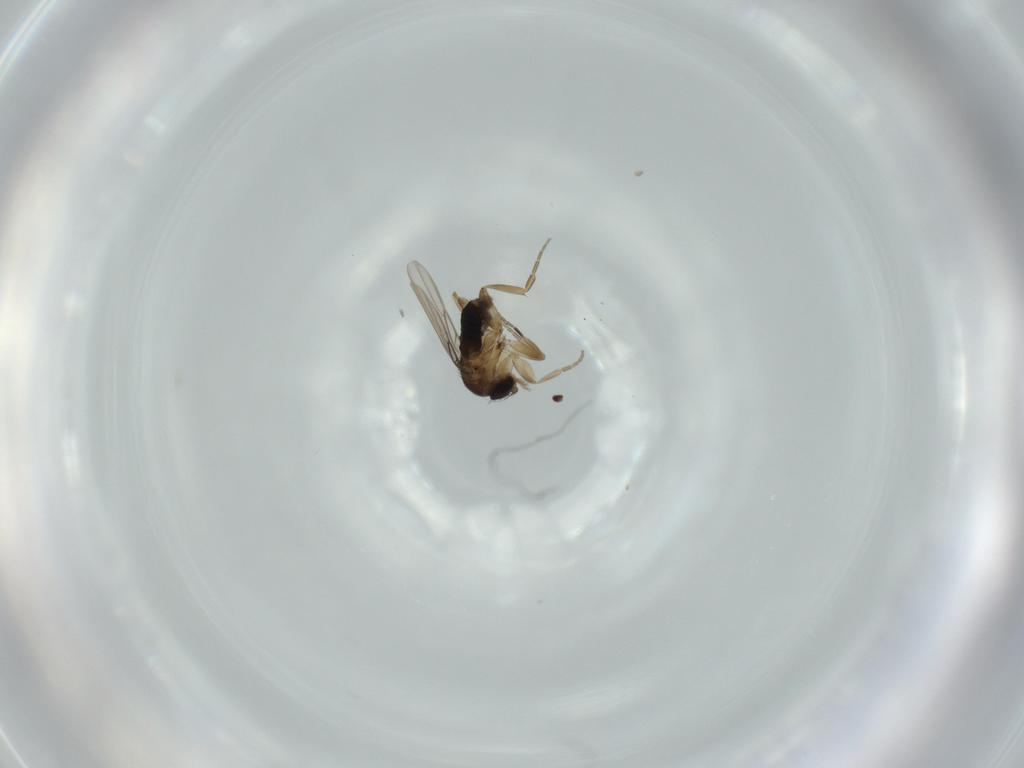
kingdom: Animalia
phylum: Arthropoda
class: Insecta
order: Diptera
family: Phoridae
